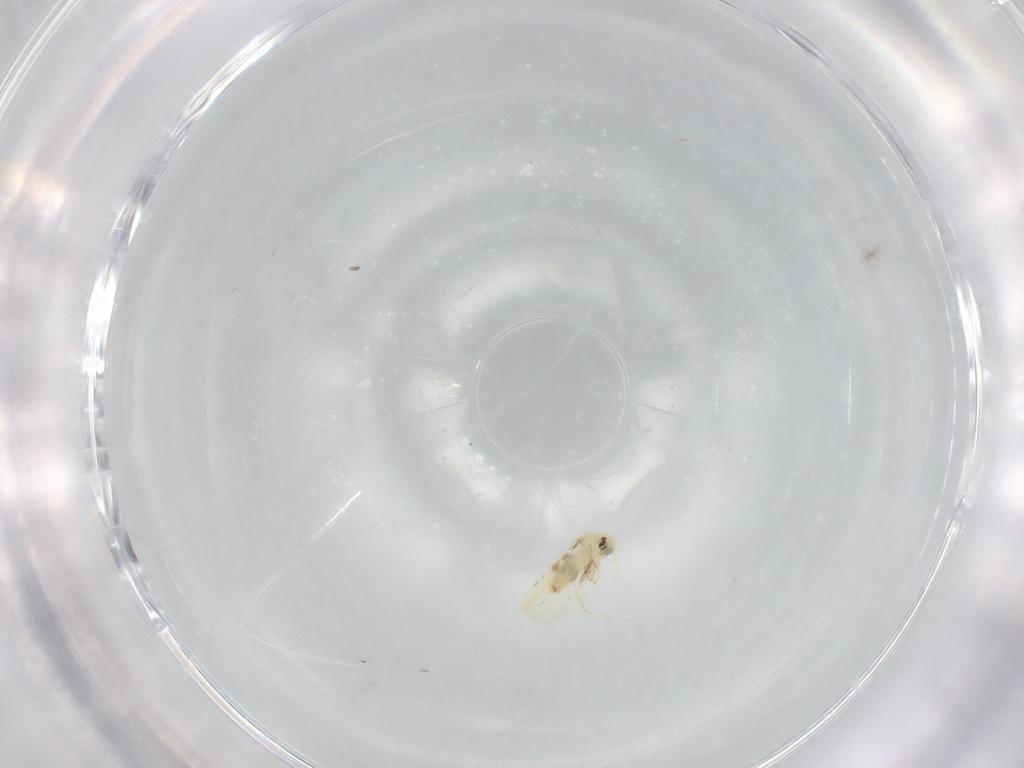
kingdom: Animalia
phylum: Arthropoda
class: Insecta
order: Hemiptera
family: Aleyrodidae
